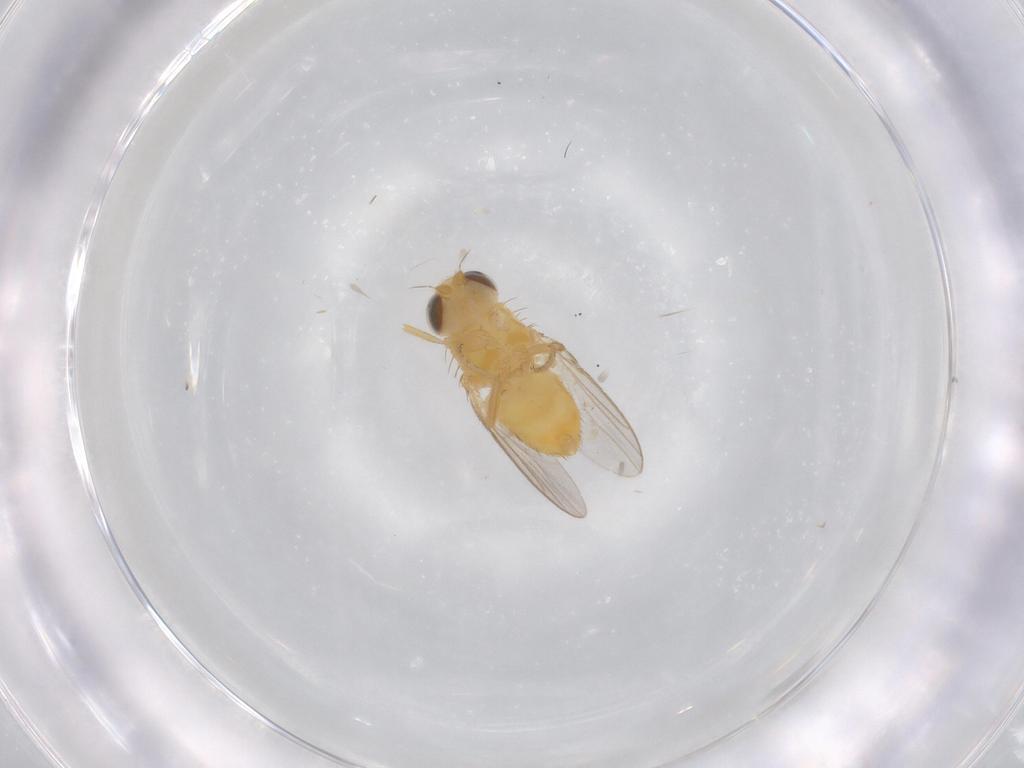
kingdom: Animalia
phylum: Arthropoda
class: Insecta
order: Diptera
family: Chloropidae
